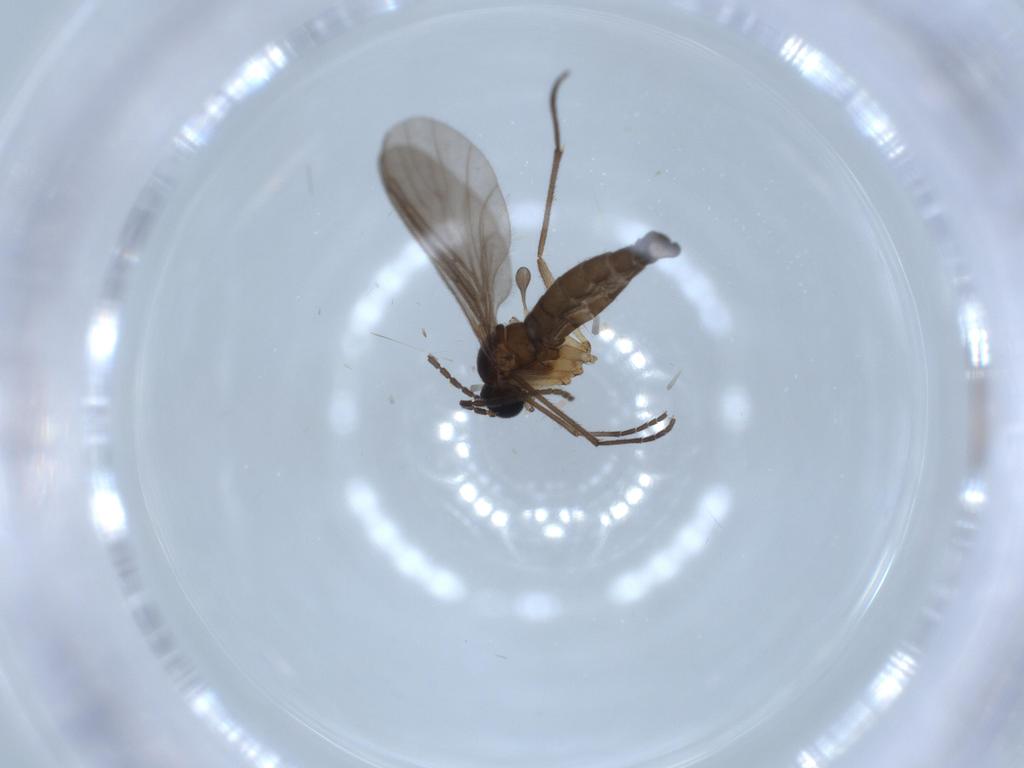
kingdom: Animalia
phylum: Arthropoda
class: Insecta
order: Diptera
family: Sciaridae
